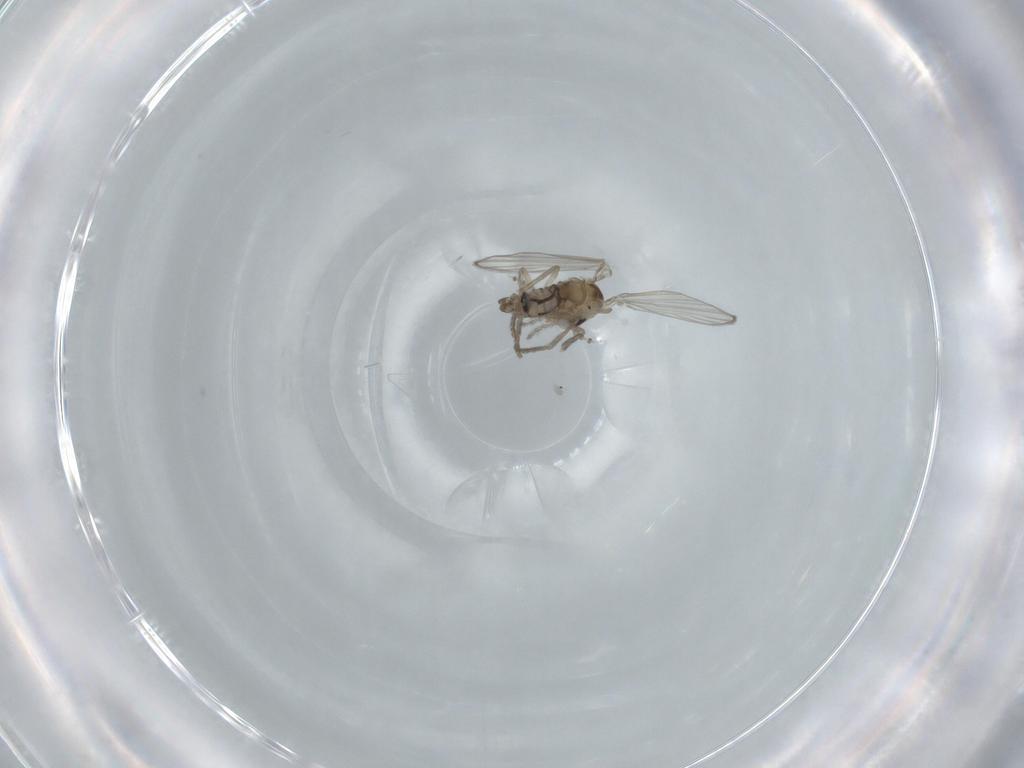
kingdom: Animalia
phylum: Arthropoda
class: Insecta
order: Diptera
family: Psychodidae
